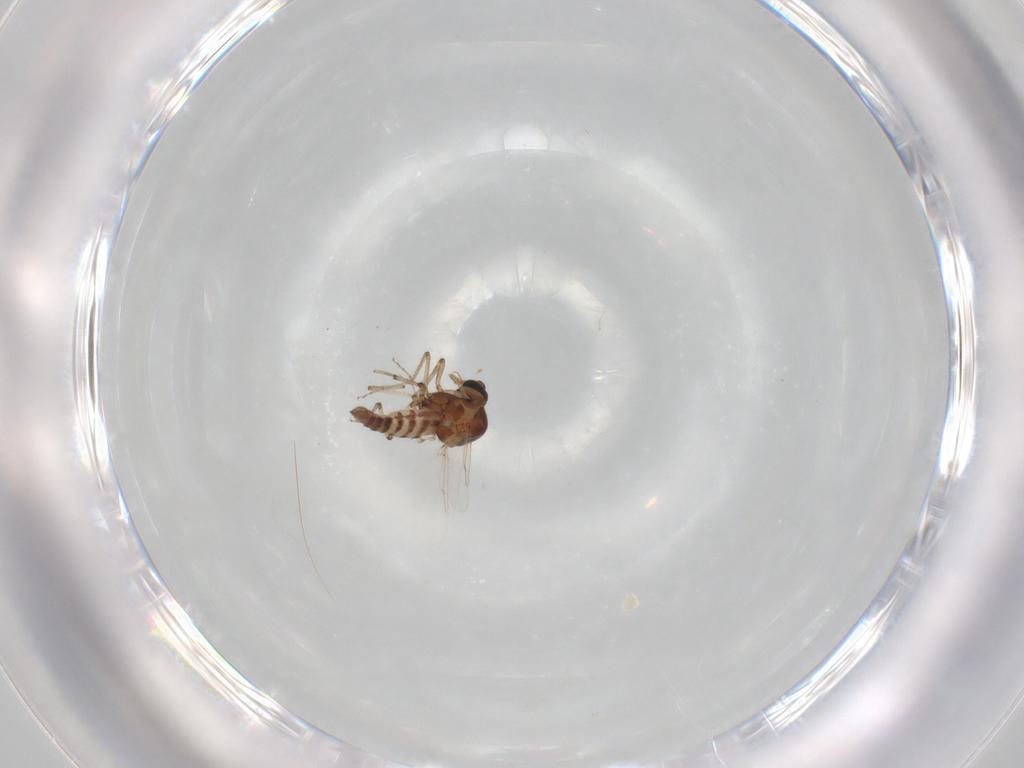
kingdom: Animalia
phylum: Arthropoda
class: Insecta
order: Diptera
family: Ceratopogonidae
